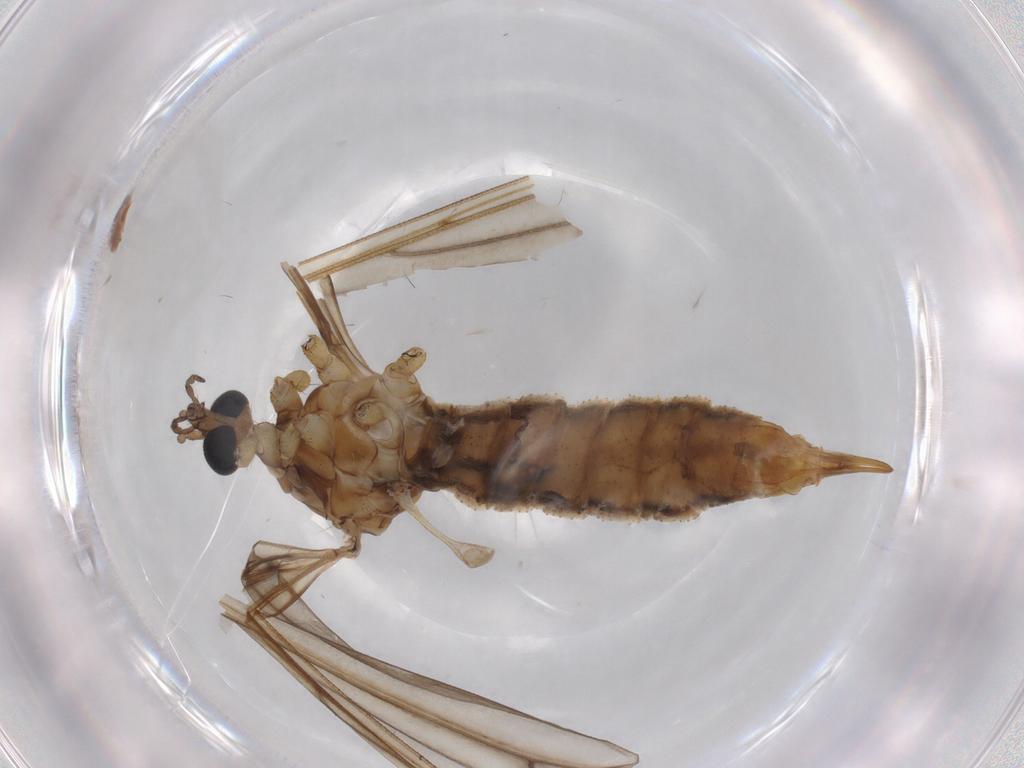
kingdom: Animalia
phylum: Arthropoda
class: Insecta
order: Diptera
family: Limoniidae
